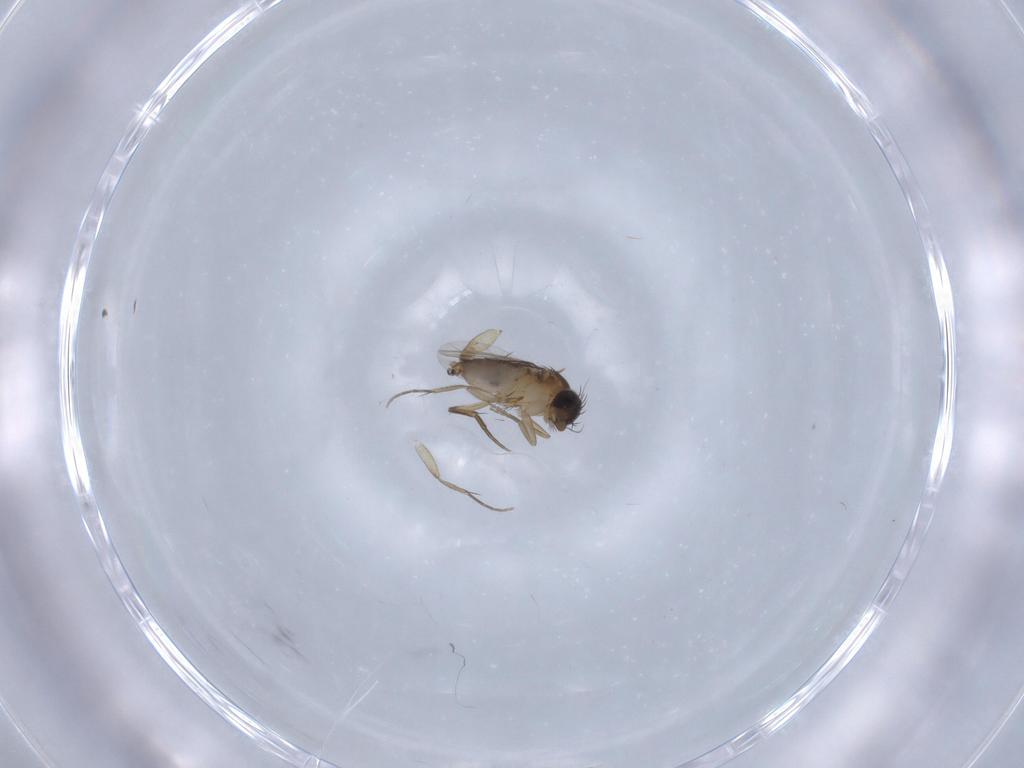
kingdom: Animalia
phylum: Arthropoda
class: Insecta
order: Diptera
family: Phoridae
